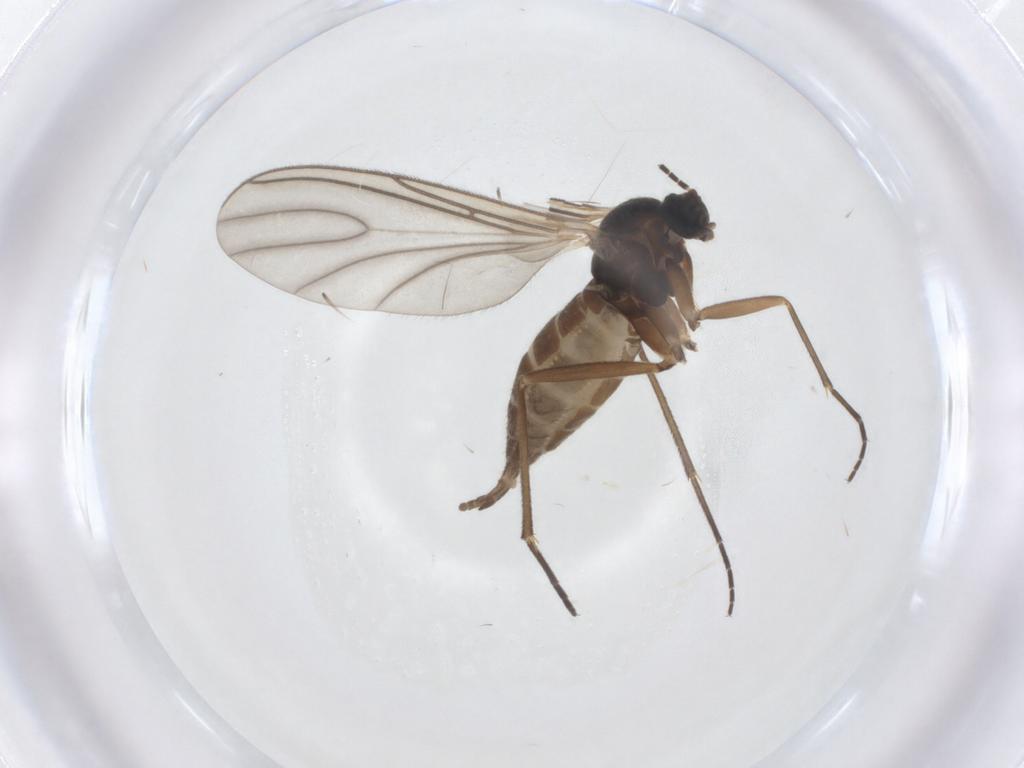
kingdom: Animalia
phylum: Arthropoda
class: Insecta
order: Diptera
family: Sciaridae
